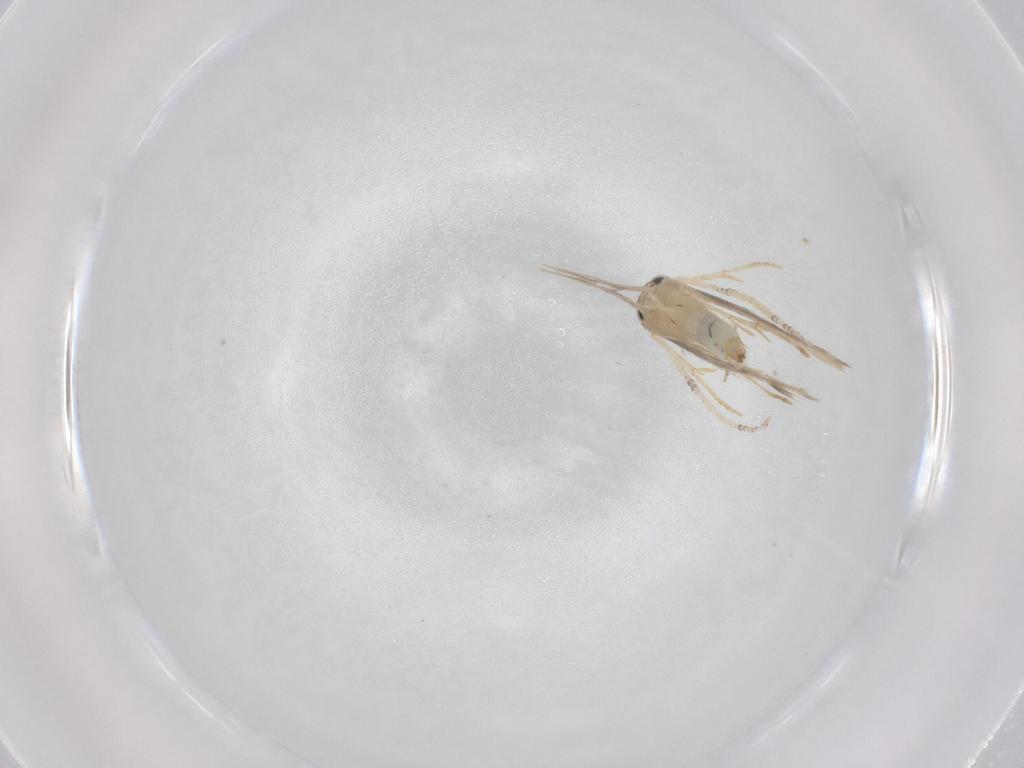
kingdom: Animalia
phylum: Arthropoda
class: Insecta
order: Trichoptera
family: Hydroptilidae
